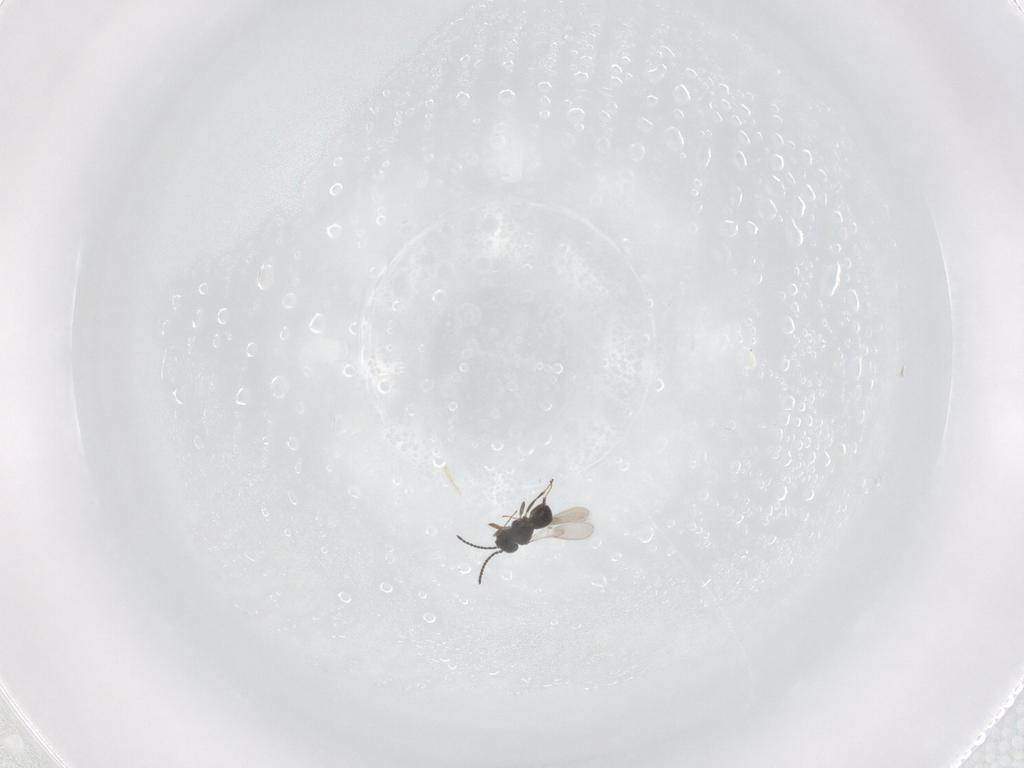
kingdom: Animalia
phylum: Arthropoda
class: Insecta
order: Hymenoptera
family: Scelionidae
